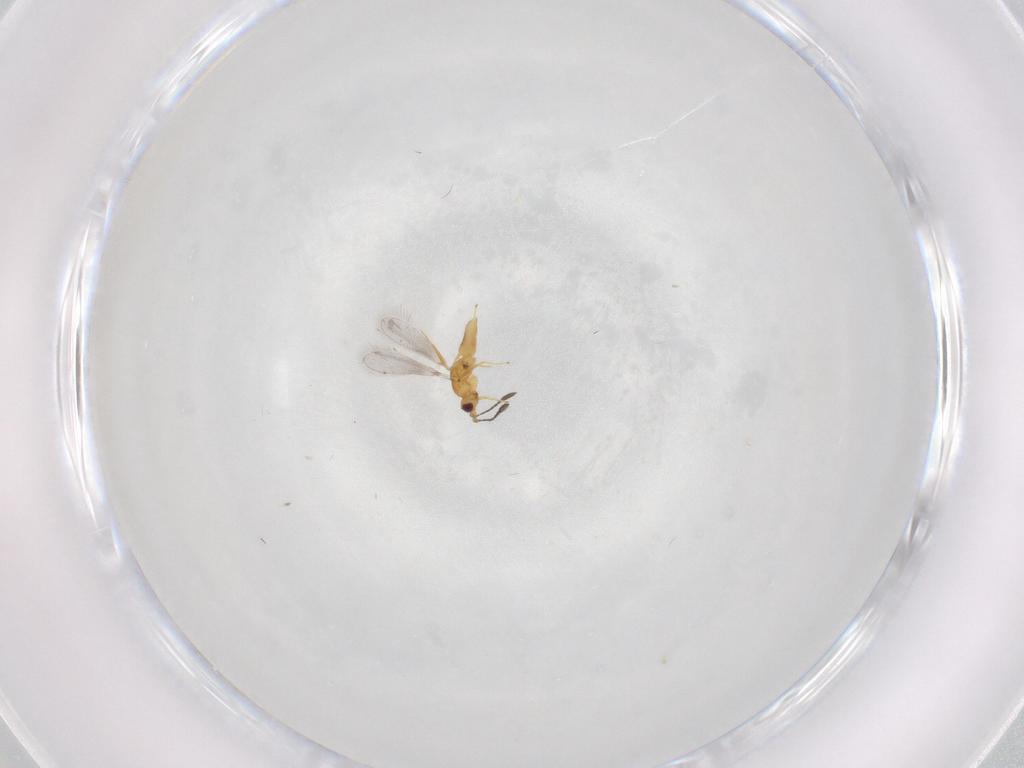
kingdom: Animalia
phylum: Arthropoda
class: Insecta
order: Hymenoptera
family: Mymaridae
